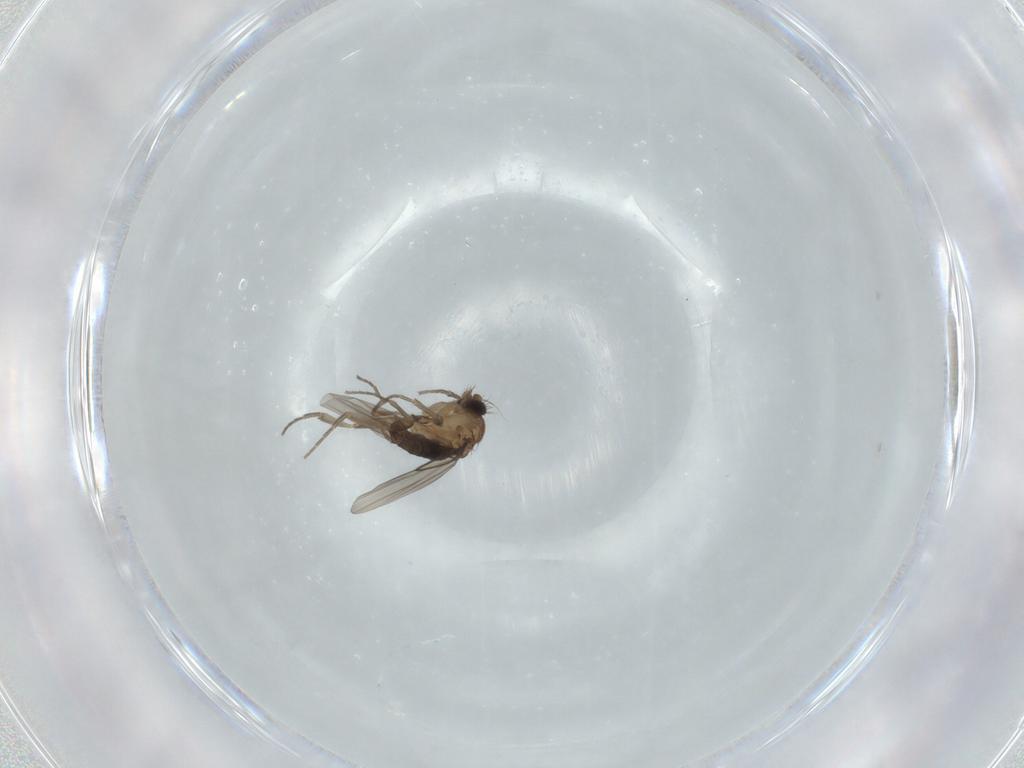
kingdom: Animalia
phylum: Arthropoda
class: Insecta
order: Diptera
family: Phoridae
